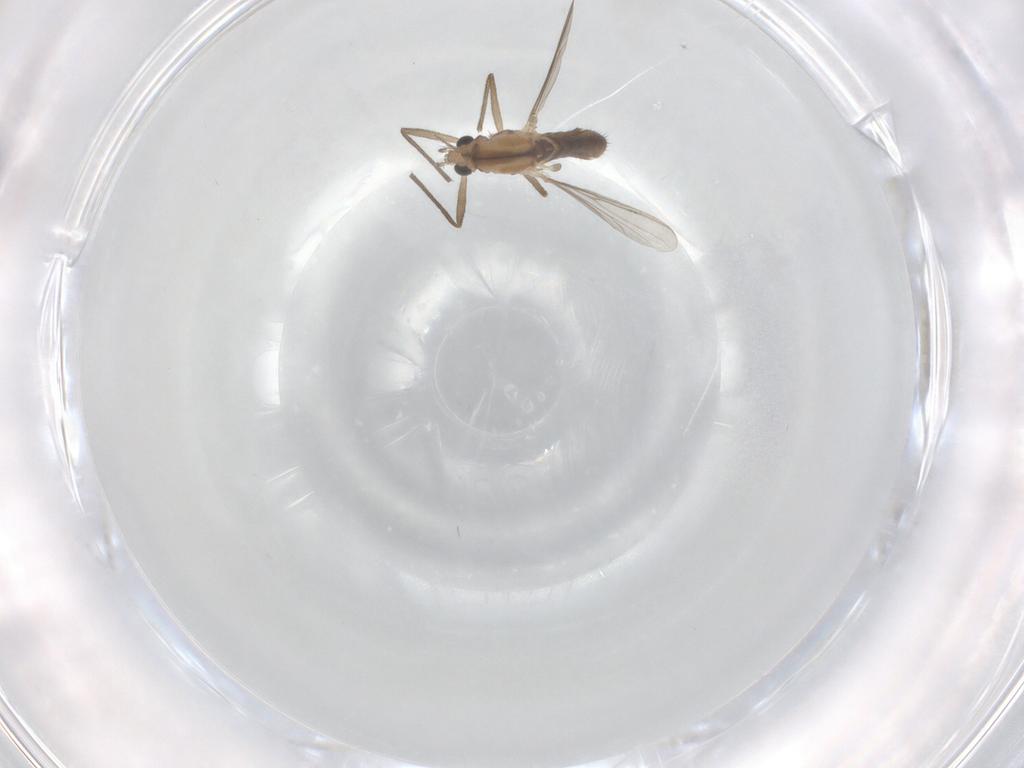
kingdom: Animalia
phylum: Arthropoda
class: Insecta
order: Diptera
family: Chironomidae
